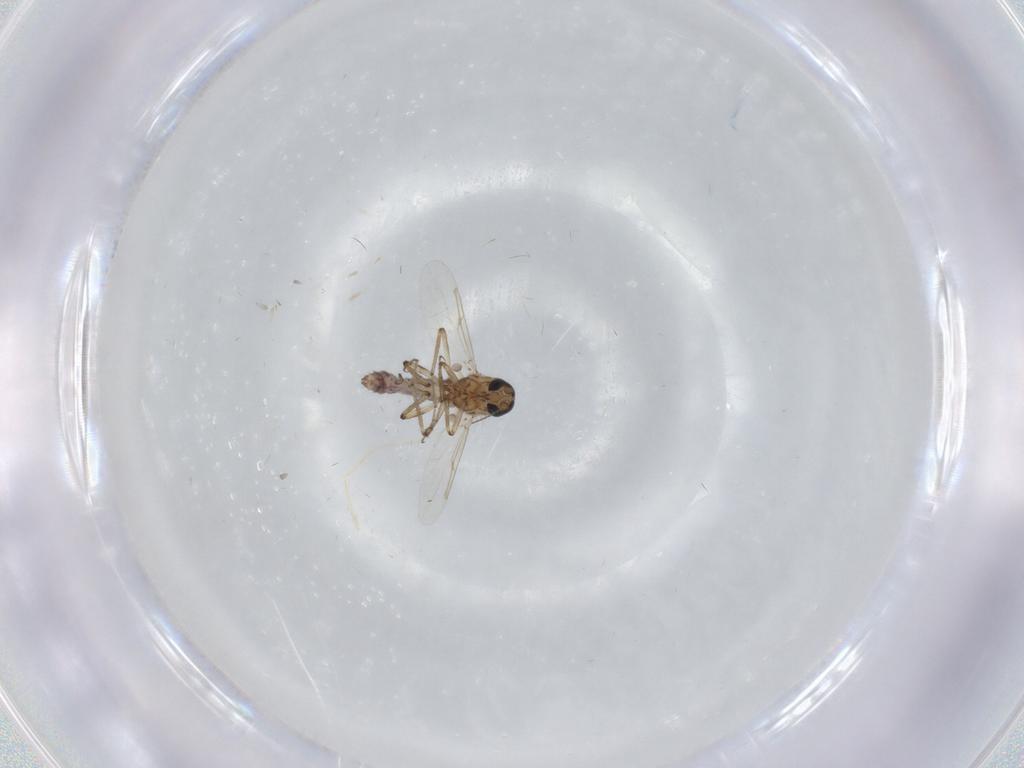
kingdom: Animalia
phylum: Arthropoda
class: Insecta
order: Diptera
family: Ceratopogonidae
